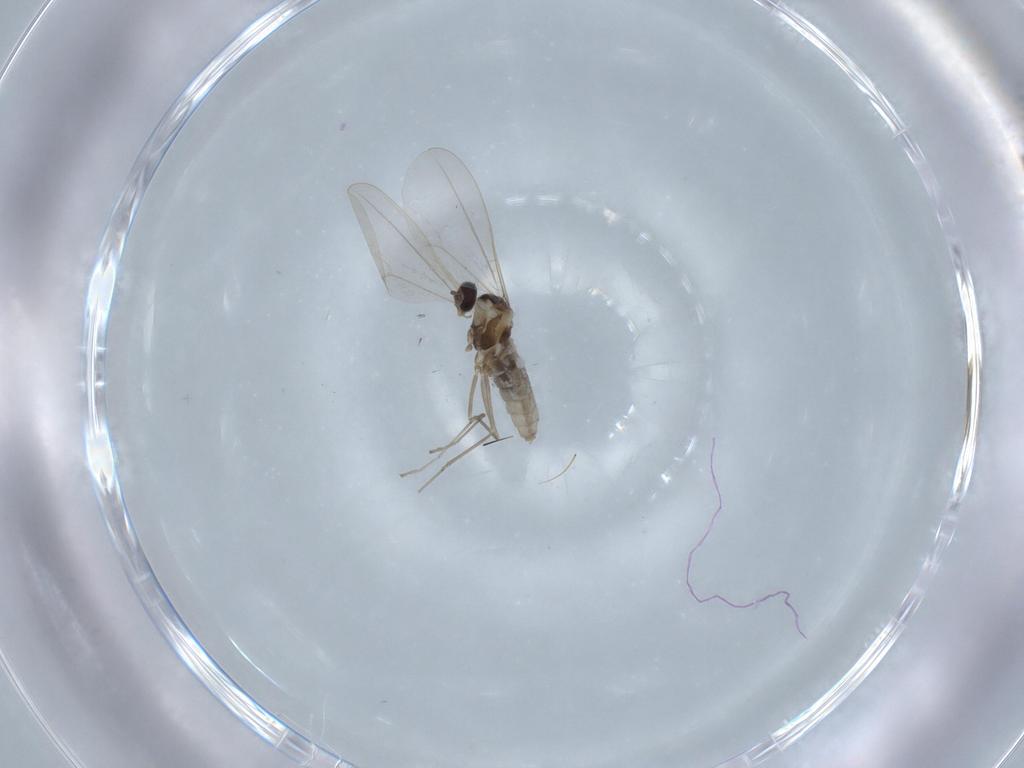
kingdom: Animalia
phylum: Arthropoda
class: Insecta
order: Diptera
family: Cecidomyiidae
